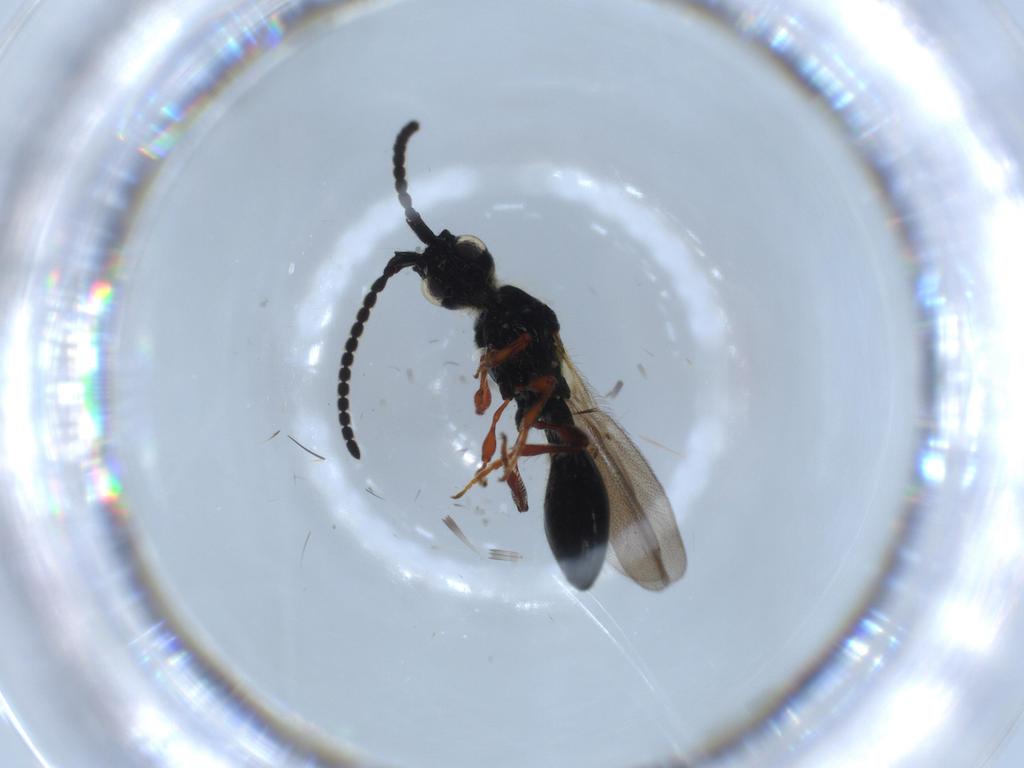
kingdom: Animalia
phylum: Arthropoda
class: Insecta
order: Hymenoptera
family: Diapriidae
